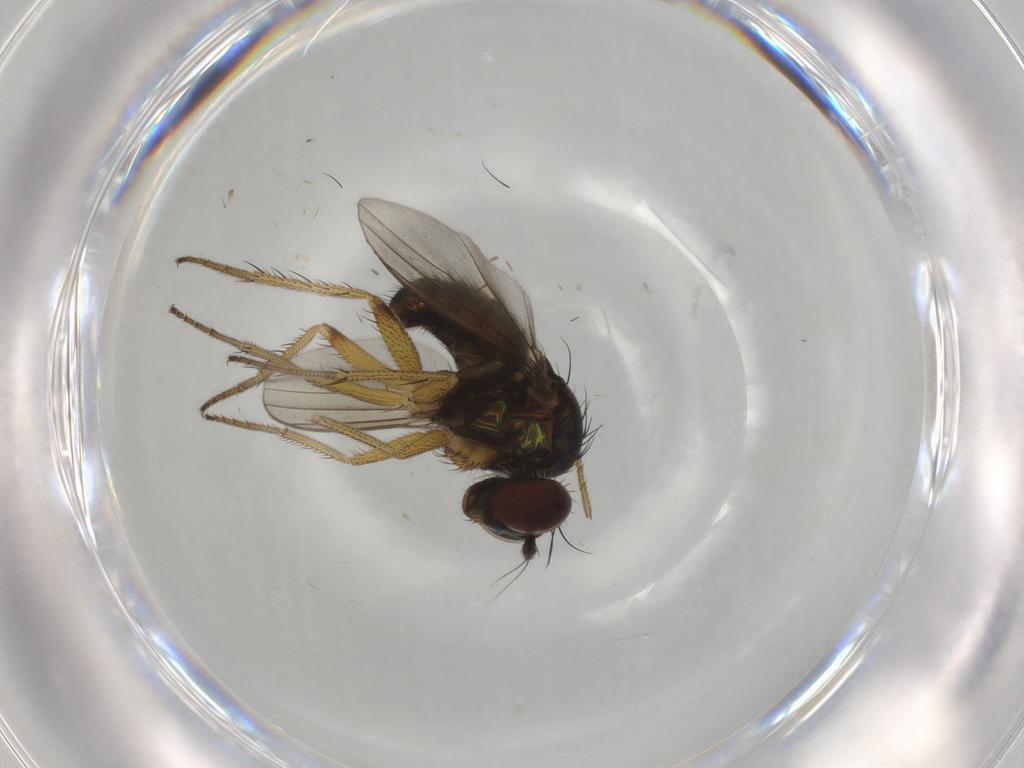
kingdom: Animalia
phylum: Arthropoda
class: Insecta
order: Diptera
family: Dolichopodidae
